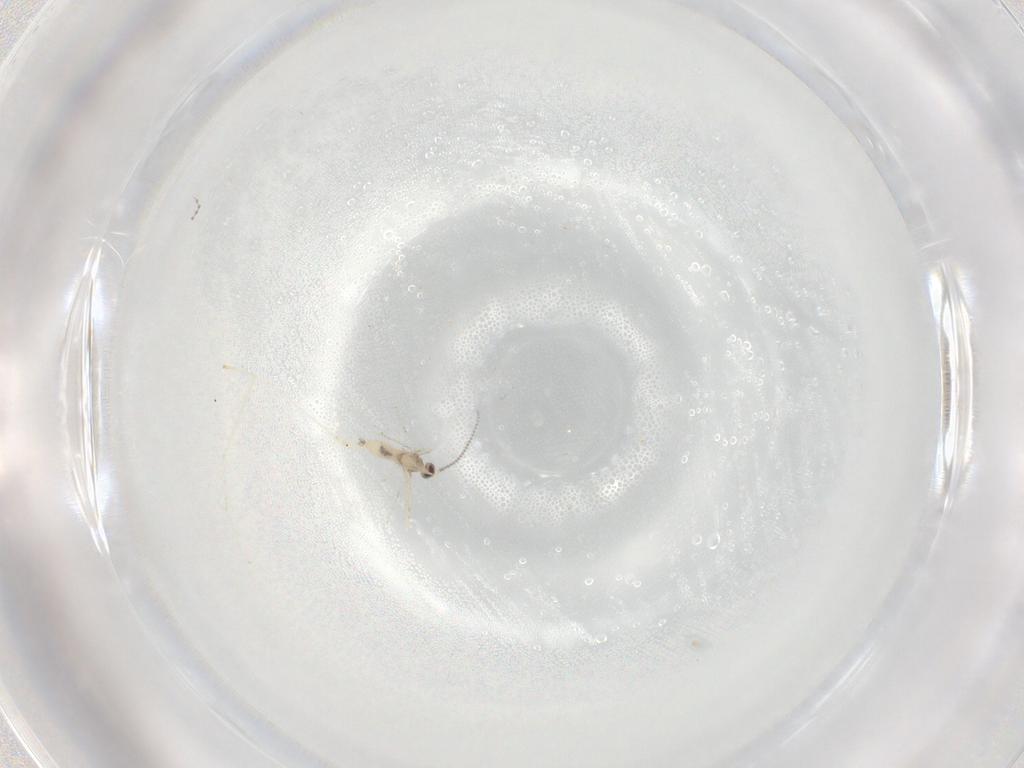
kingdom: Animalia
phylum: Arthropoda
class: Insecta
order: Diptera
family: Cecidomyiidae
